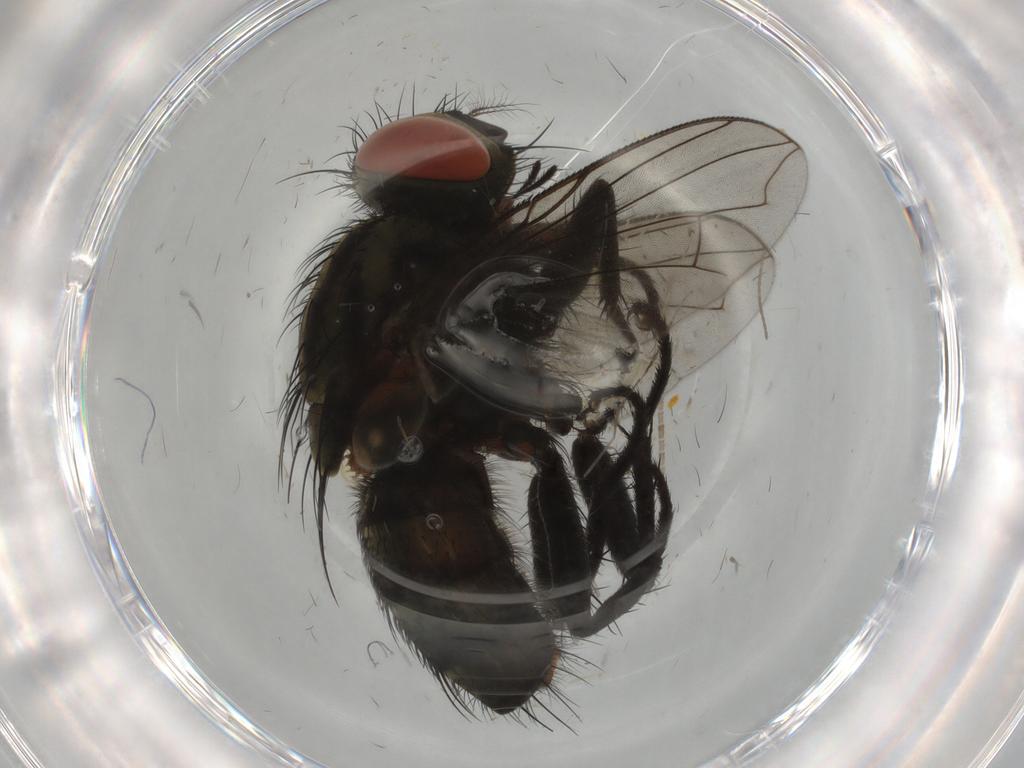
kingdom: Animalia
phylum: Arthropoda
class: Insecta
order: Diptera
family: Sarcophagidae
